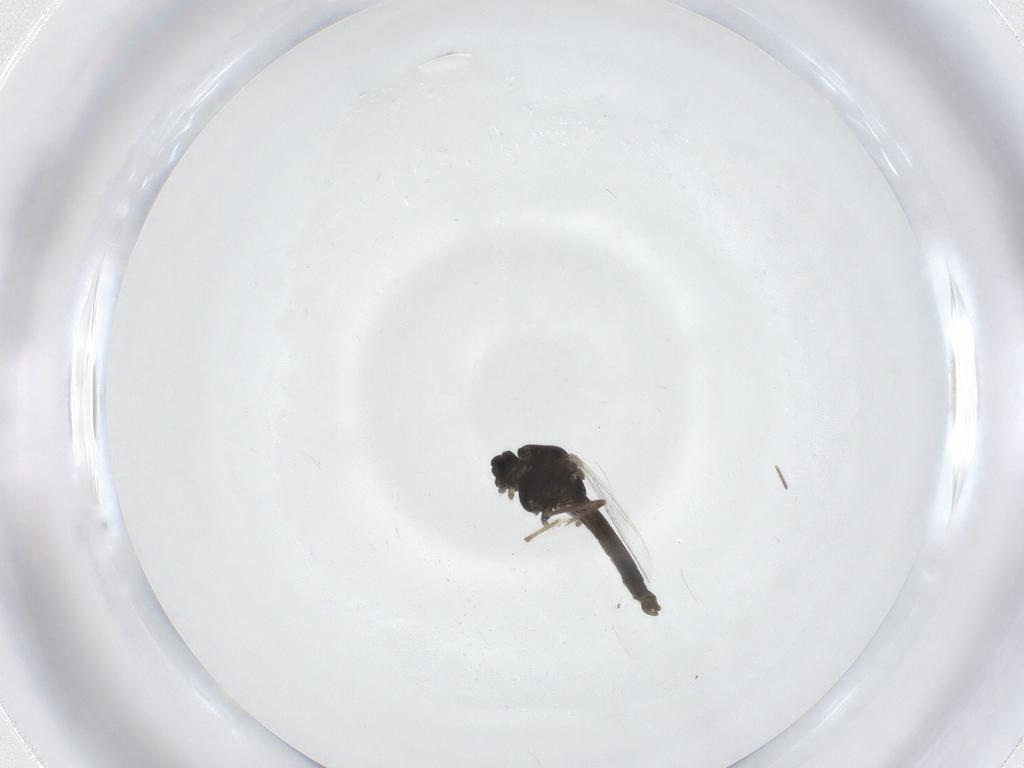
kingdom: Animalia
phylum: Arthropoda
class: Insecta
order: Diptera
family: Chironomidae
